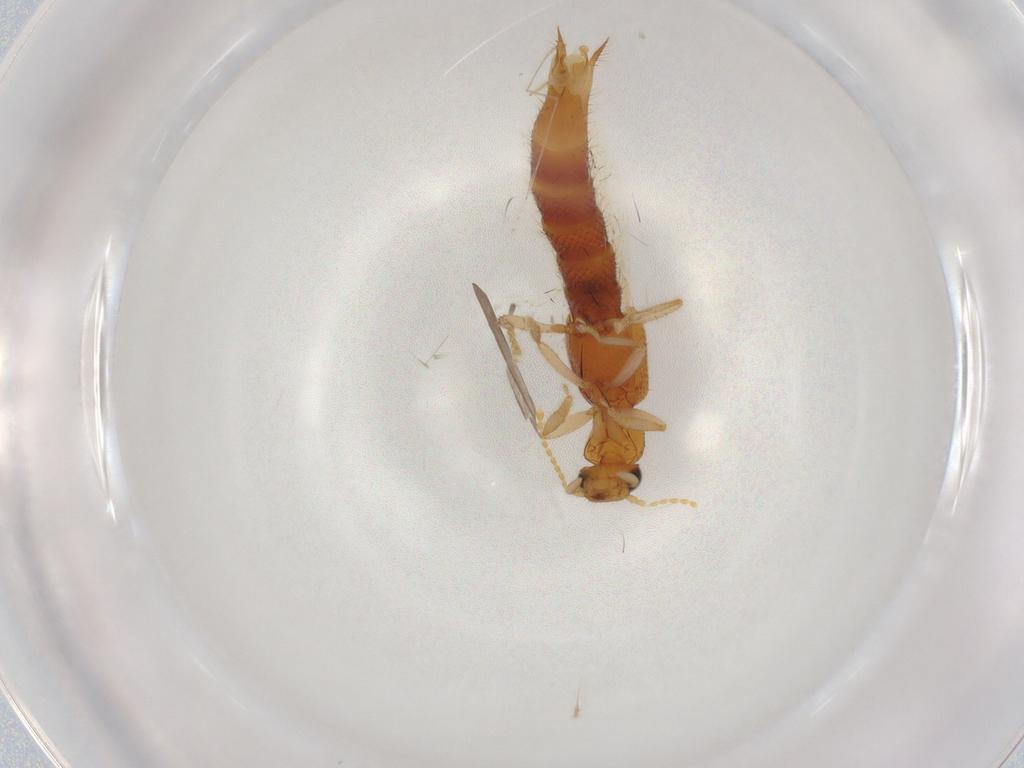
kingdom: Animalia
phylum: Arthropoda
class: Insecta
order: Coleoptera
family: Staphylinidae
